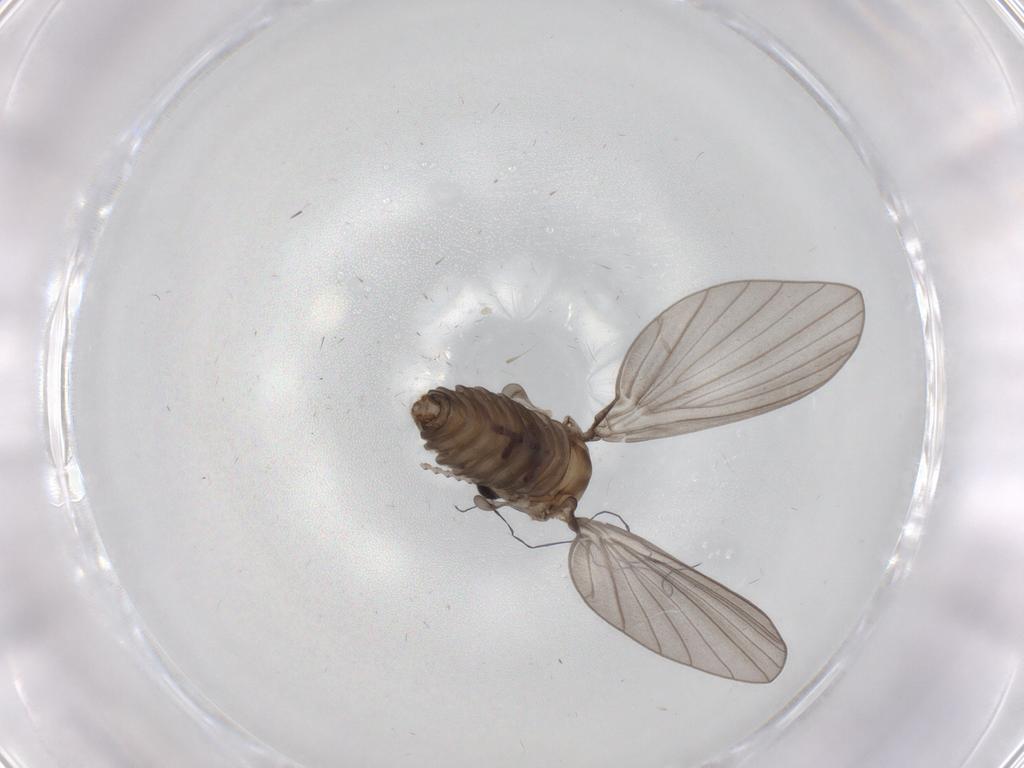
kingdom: Animalia
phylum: Arthropoda
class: Insecta
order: Diptera
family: Psychodidae
